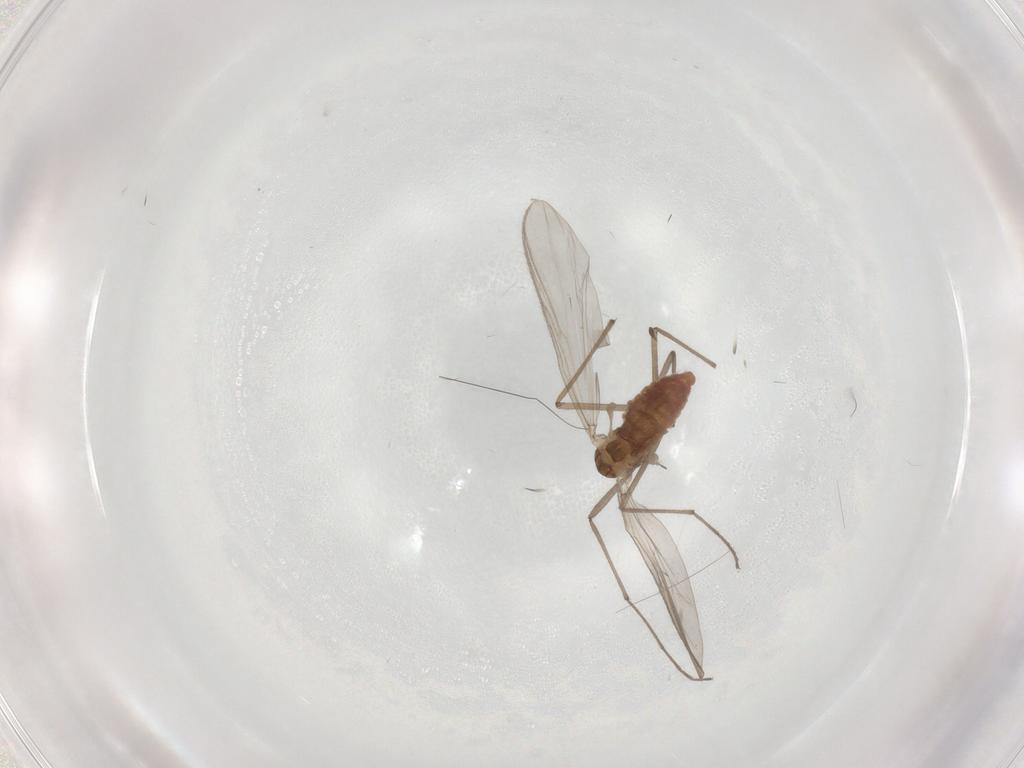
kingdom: Animalia
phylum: Arthropoda
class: Insecta
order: Diptera
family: Chironomidae
